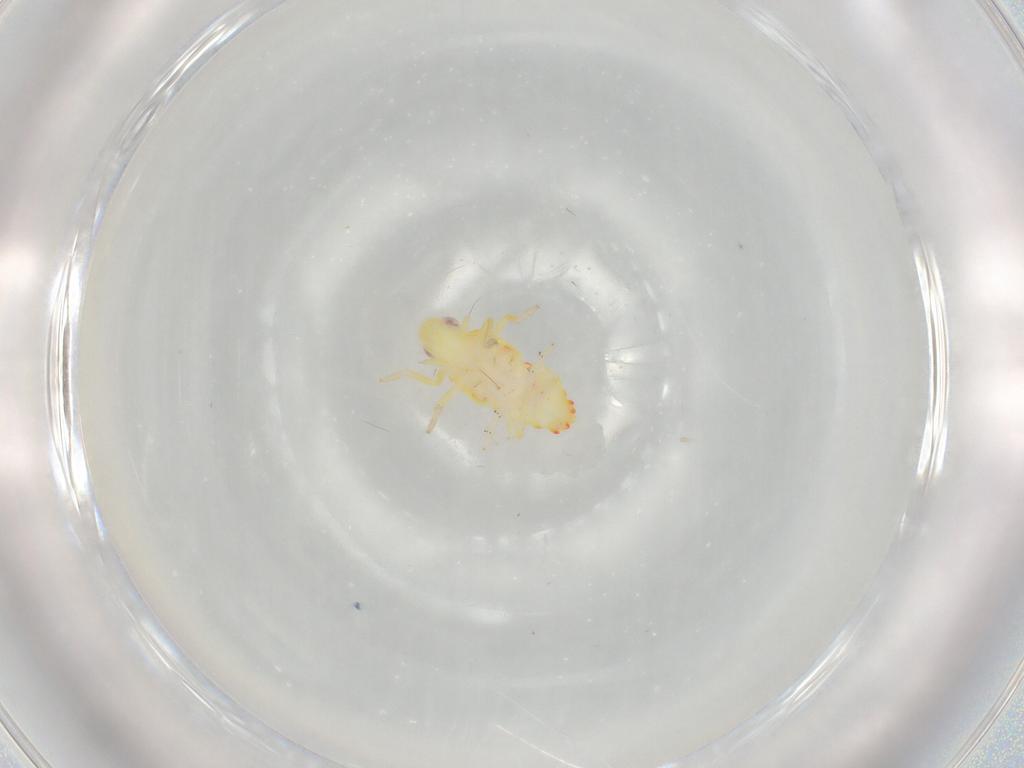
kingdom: Animalia
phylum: Arthropoda
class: Insecta
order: Hemiptera
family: Tropiduchidae
